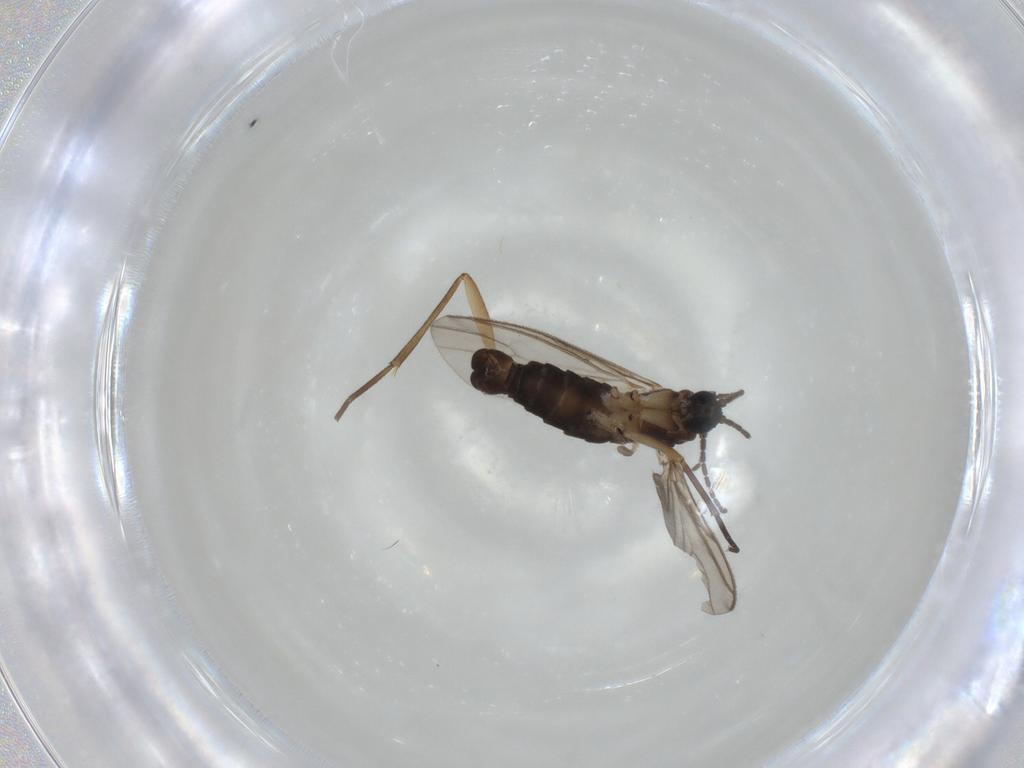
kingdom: Animalia
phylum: Arthropoda
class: Insecta
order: Diptera
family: Sciaridae
